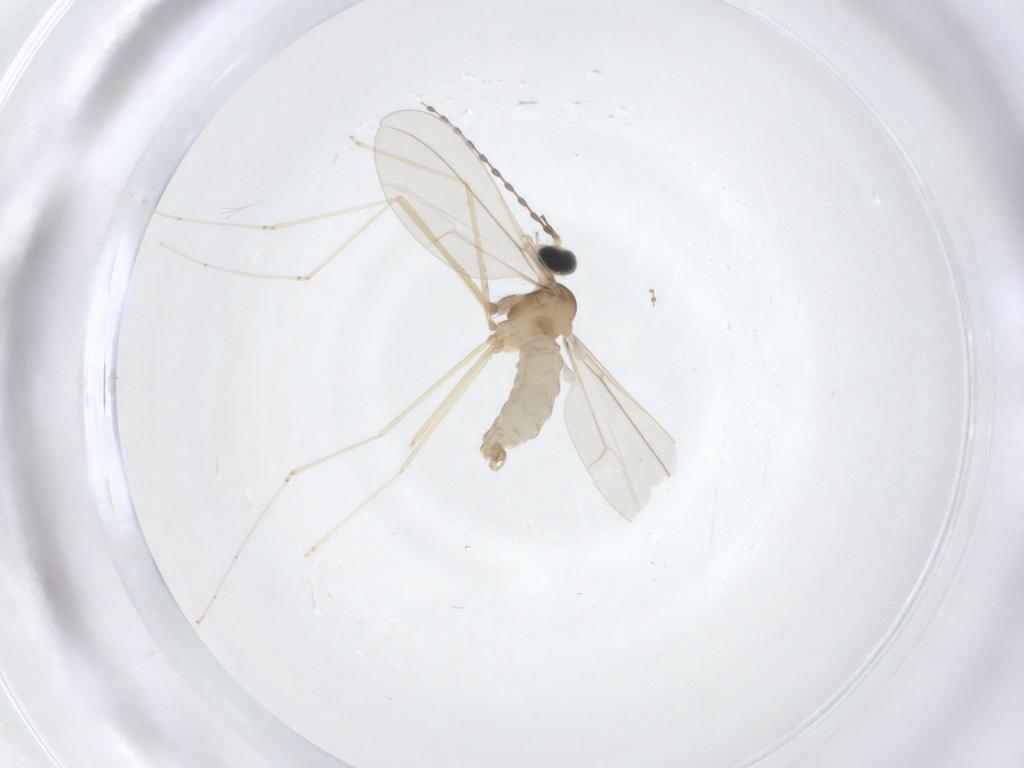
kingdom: Animalia
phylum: Arthropoda
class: Insecta
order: Diptera
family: Cecidomyiidae
